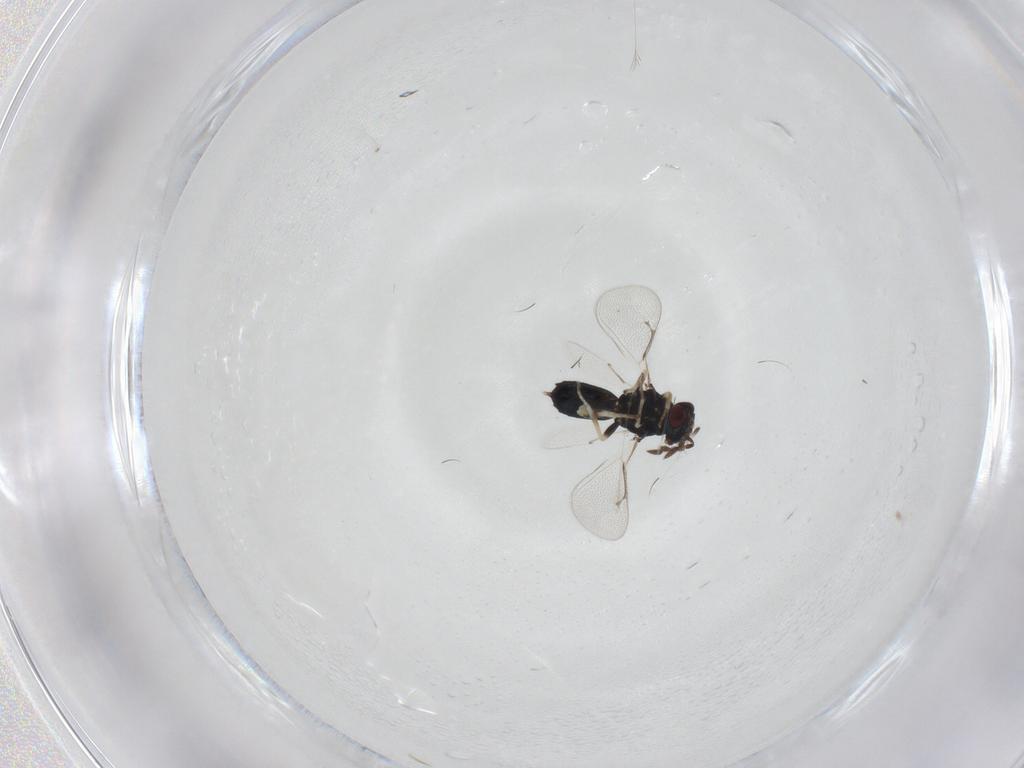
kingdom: Animalia
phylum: Arthropoda
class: Insecta
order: Hymenoptera
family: Eulophidae
